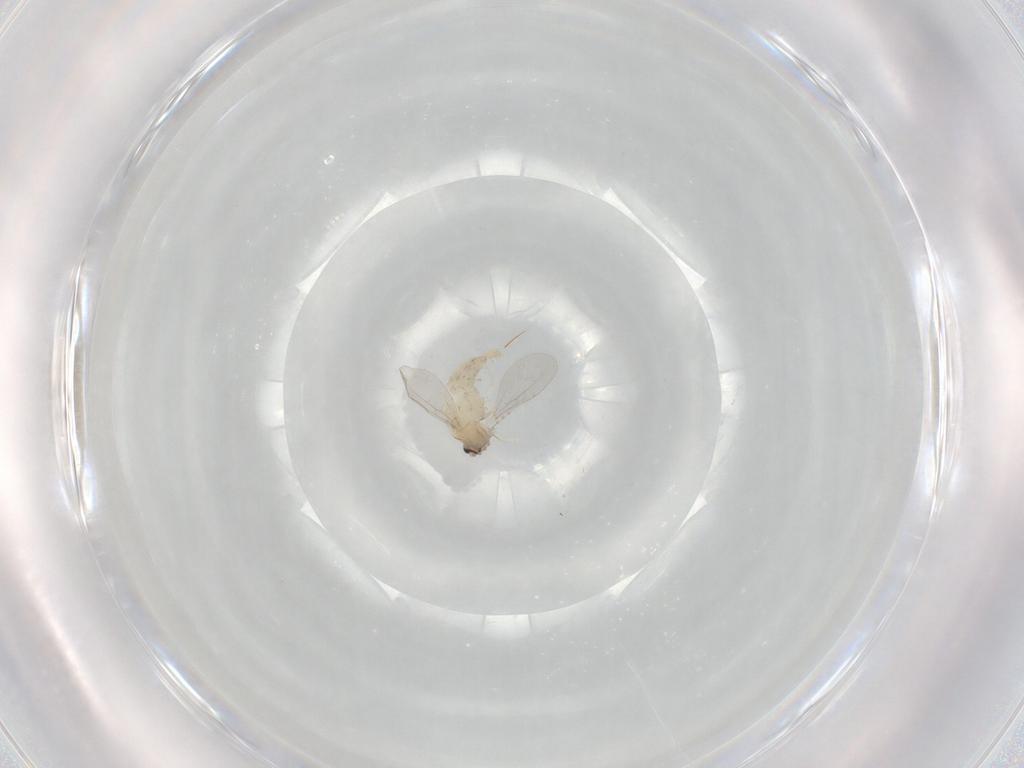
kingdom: Animalia
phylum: Arthropoda
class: Insecta
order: Diptera
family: Cecidomyiidae
